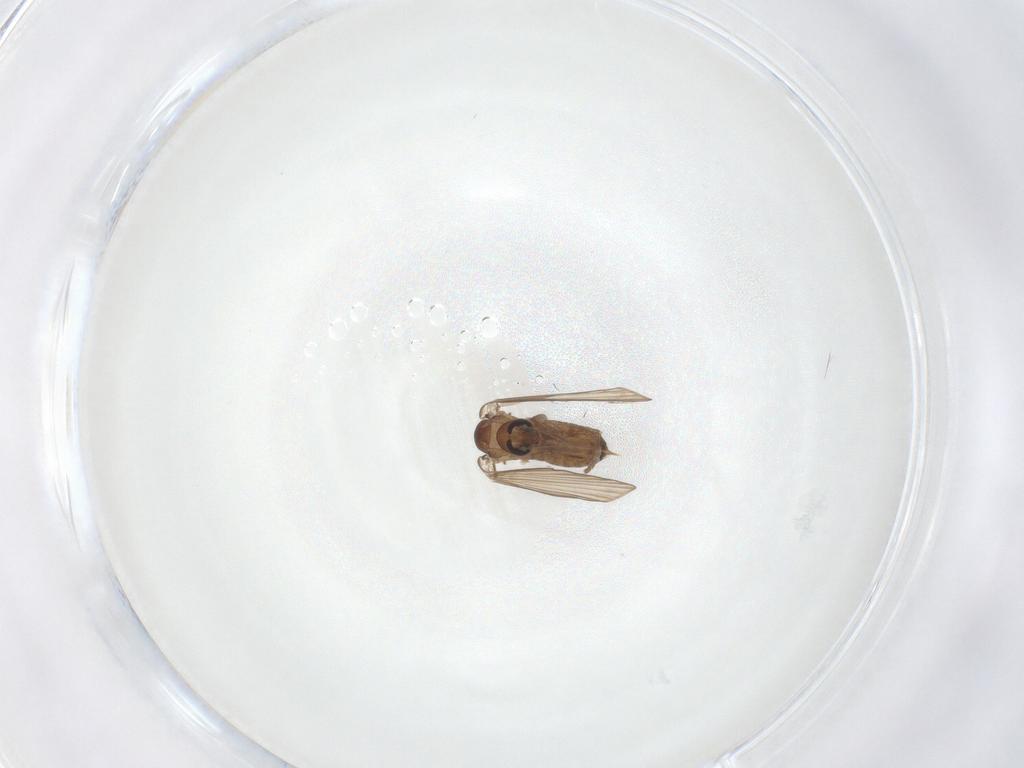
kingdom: Animalia
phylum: Arthropoda
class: Insecta
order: Diptera
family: Psychodidae
